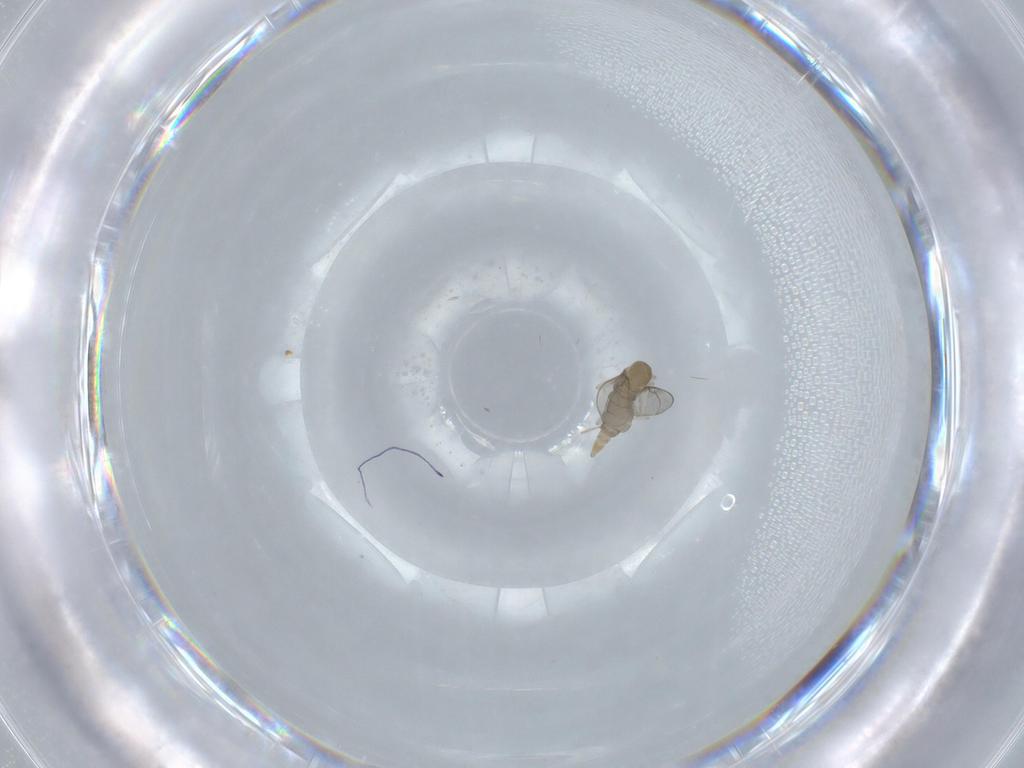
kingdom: Animalia
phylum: Arthropoda
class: Insecta
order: Diptera
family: Cecidomyiidae
